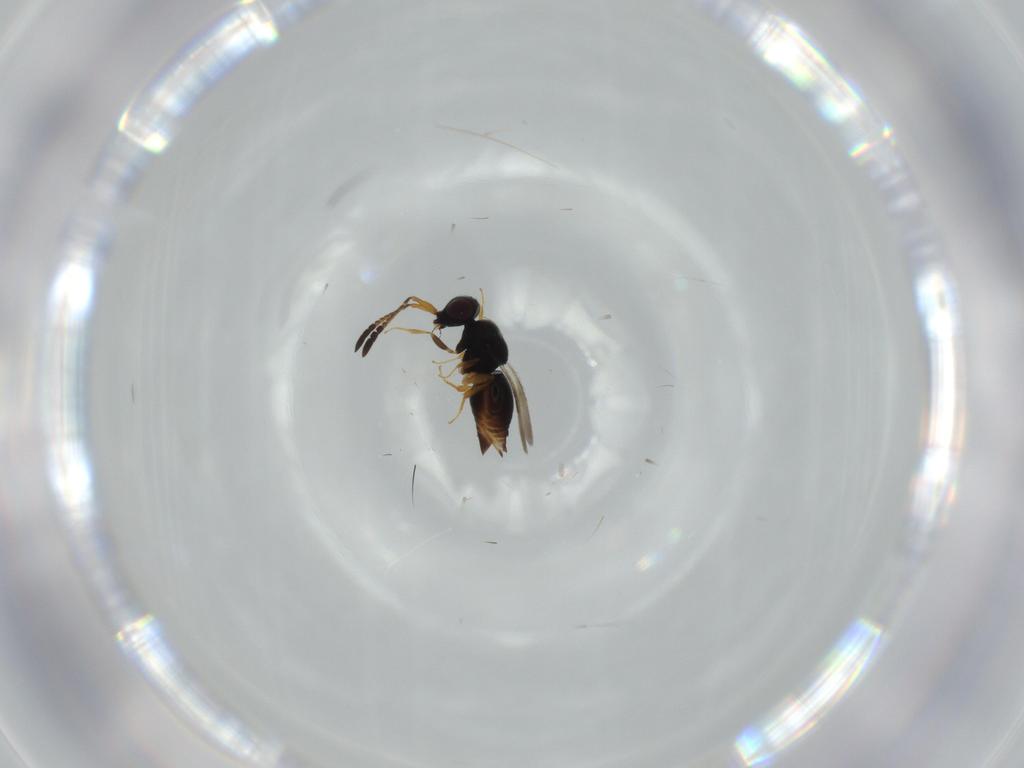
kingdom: Animalia
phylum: Arthropoda
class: Insecta
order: Hymenoptera
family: Ceraphronidae
